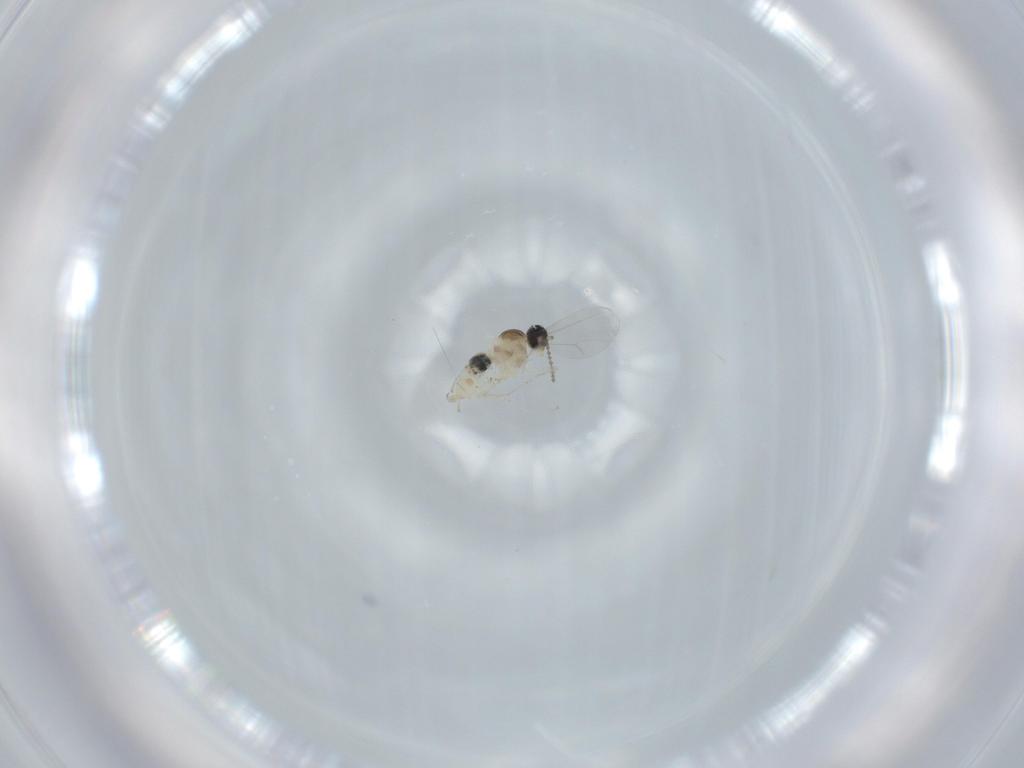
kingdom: Animalia
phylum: Arthropoda
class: Insecta
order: Diptera
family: Cecidomyiidae
